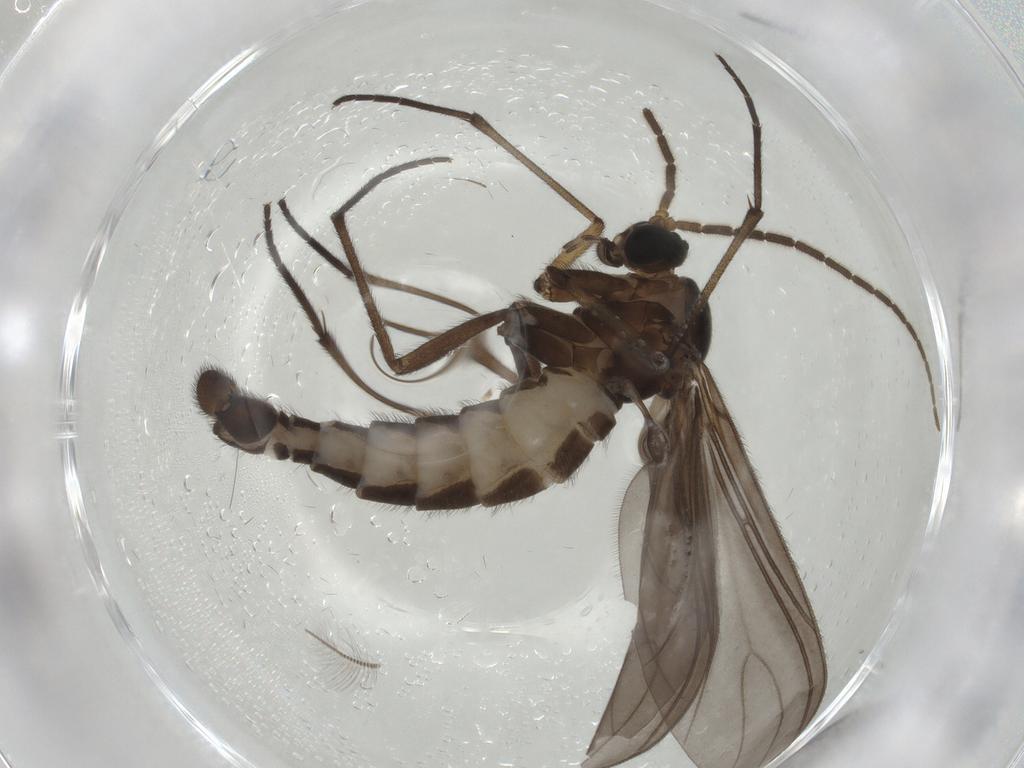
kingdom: Animalia
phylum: Arthropoda
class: Insecta
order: Diptera
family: Sciaridae
